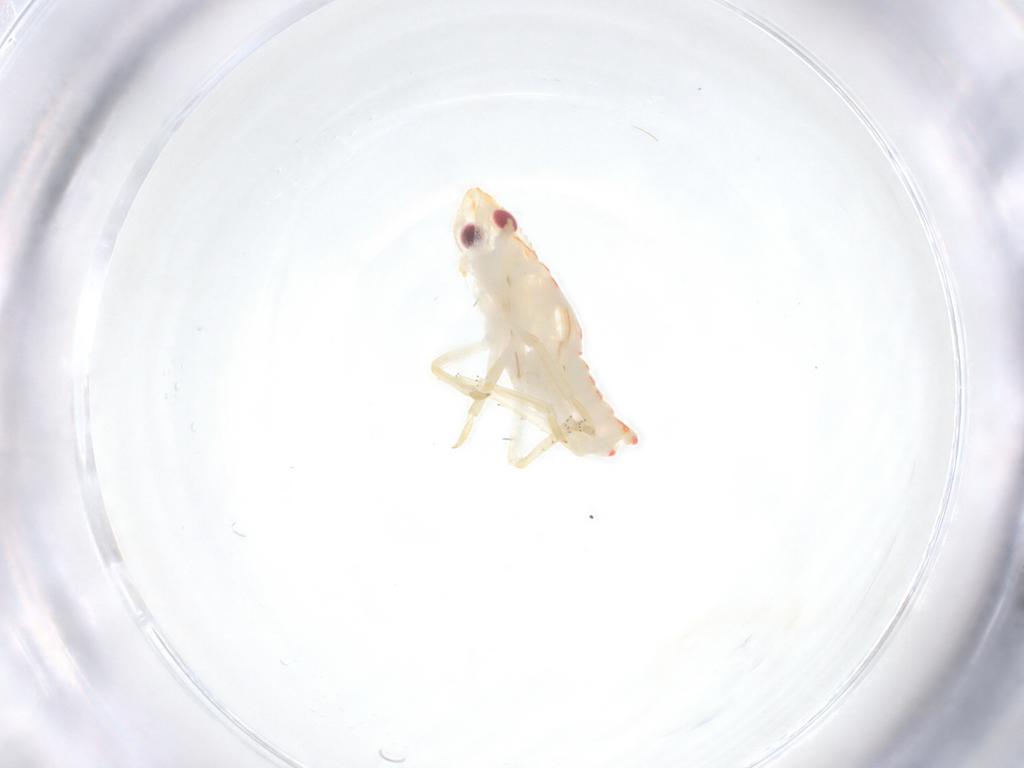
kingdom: Animalia
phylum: Arthropoda
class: Insecta
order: Hemiptera
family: Flatidae
